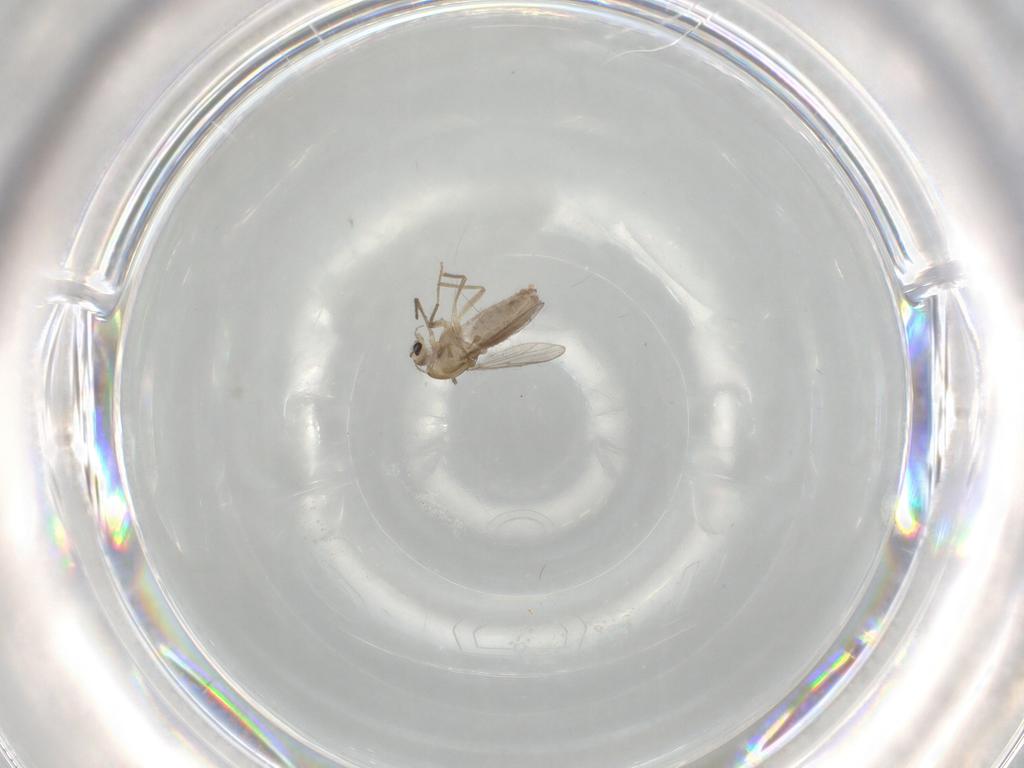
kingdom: Animalia
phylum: Arthropoda
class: Insecta
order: Diptera
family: Chironomidae
